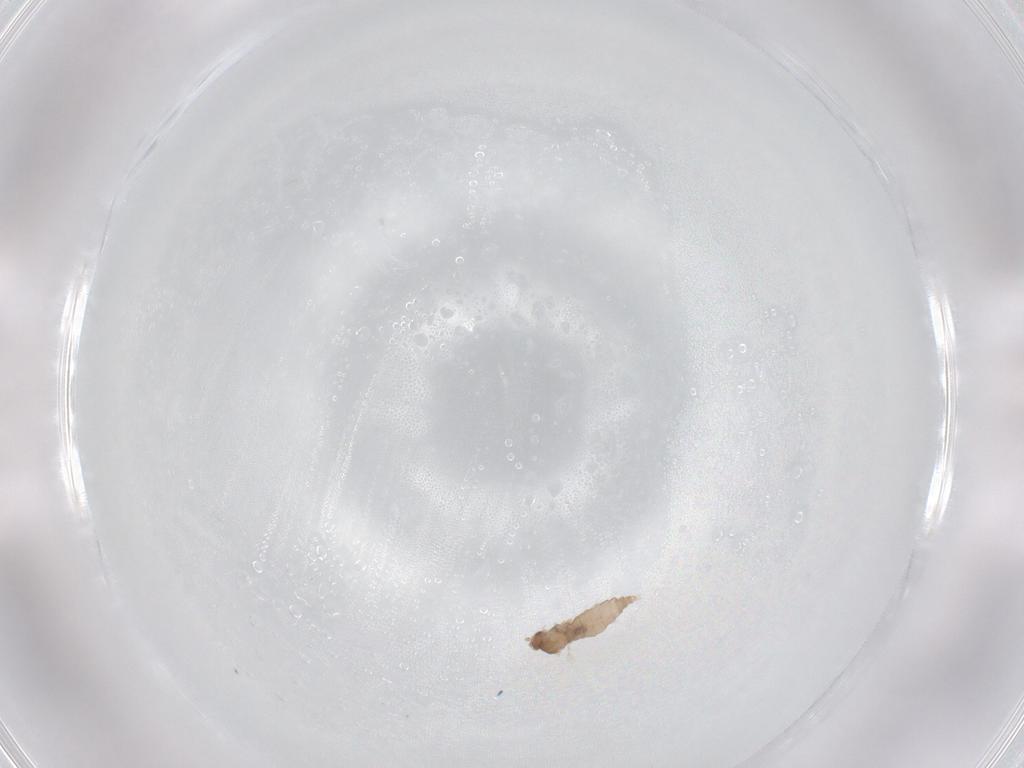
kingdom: Animalia
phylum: Arthropoda
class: Insecta
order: Diptera
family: Cecidomyiidae
